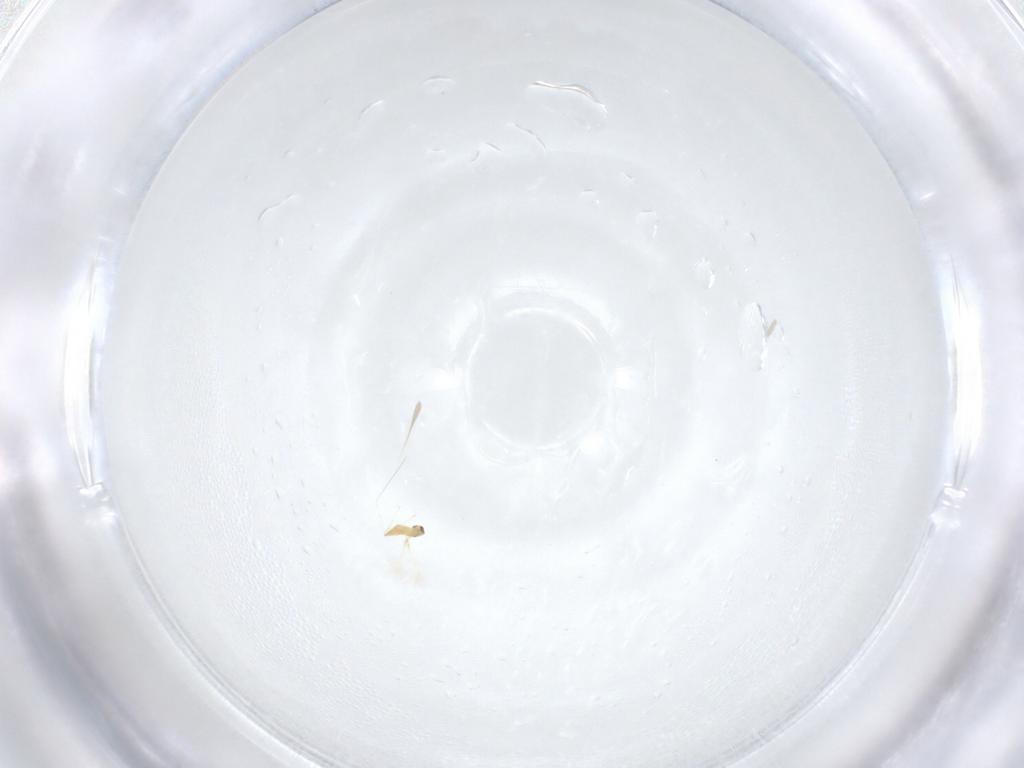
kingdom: Animalia
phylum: Arthropoda
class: Insecta
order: Hymenoptera
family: Mymaridae
